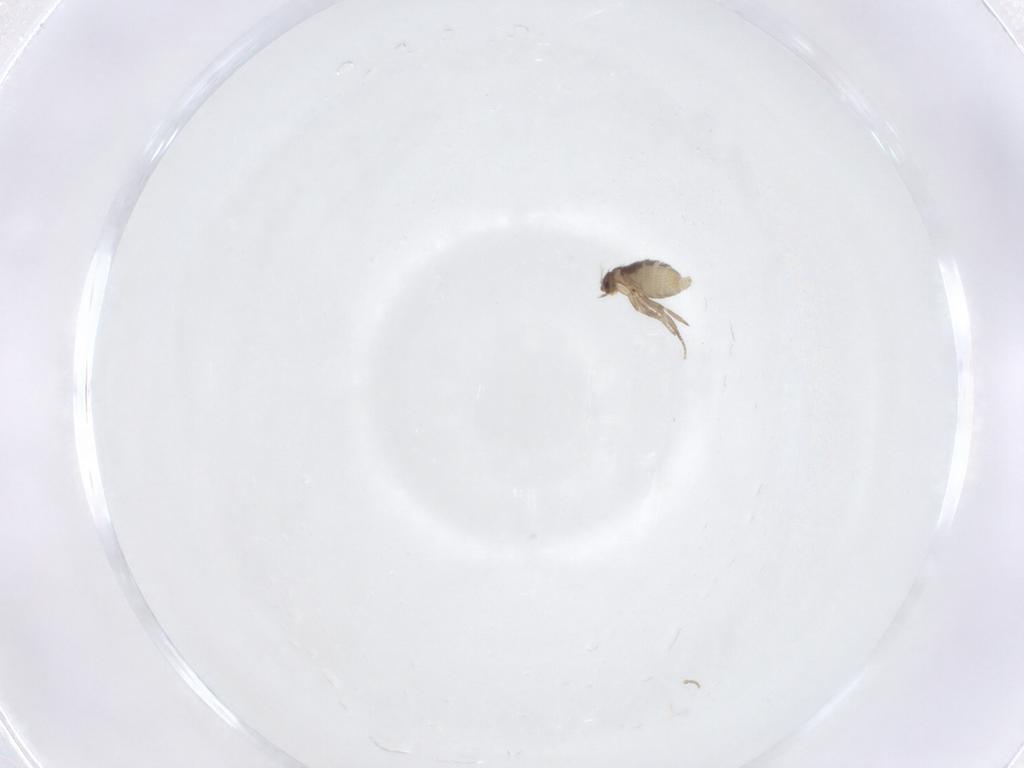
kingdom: Animalia
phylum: Arthropoda
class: Insecta
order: Diptera
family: Phoridae
